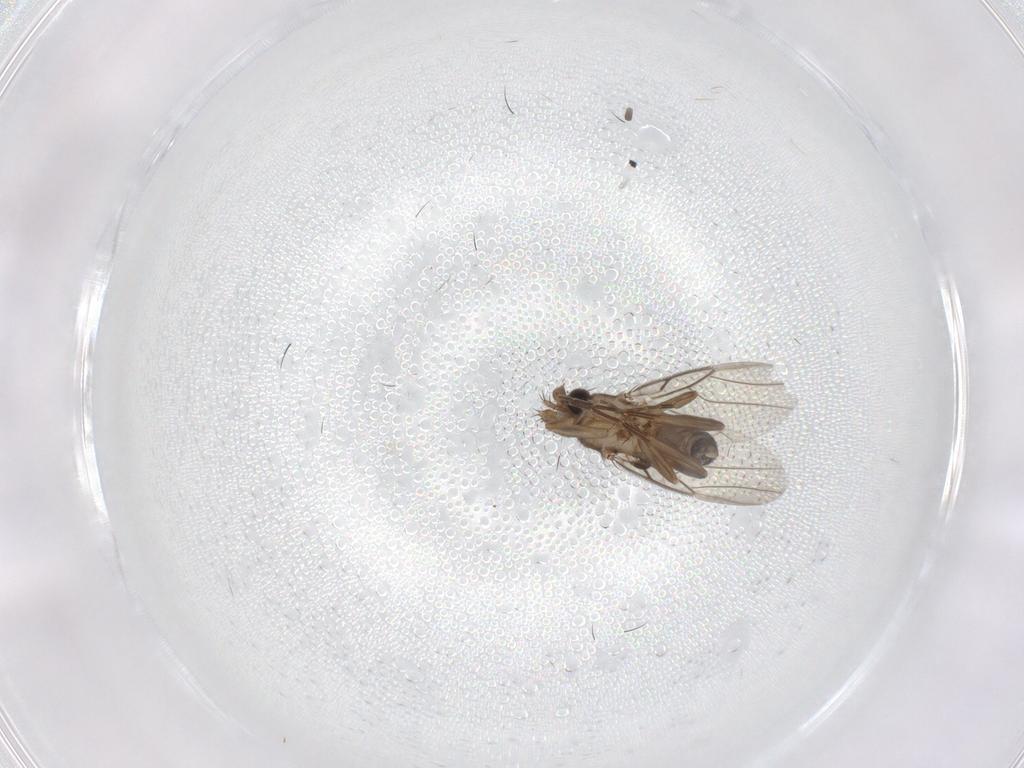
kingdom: Animalia
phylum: Arthropoda
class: Insecta
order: Diptera
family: Phoridae
